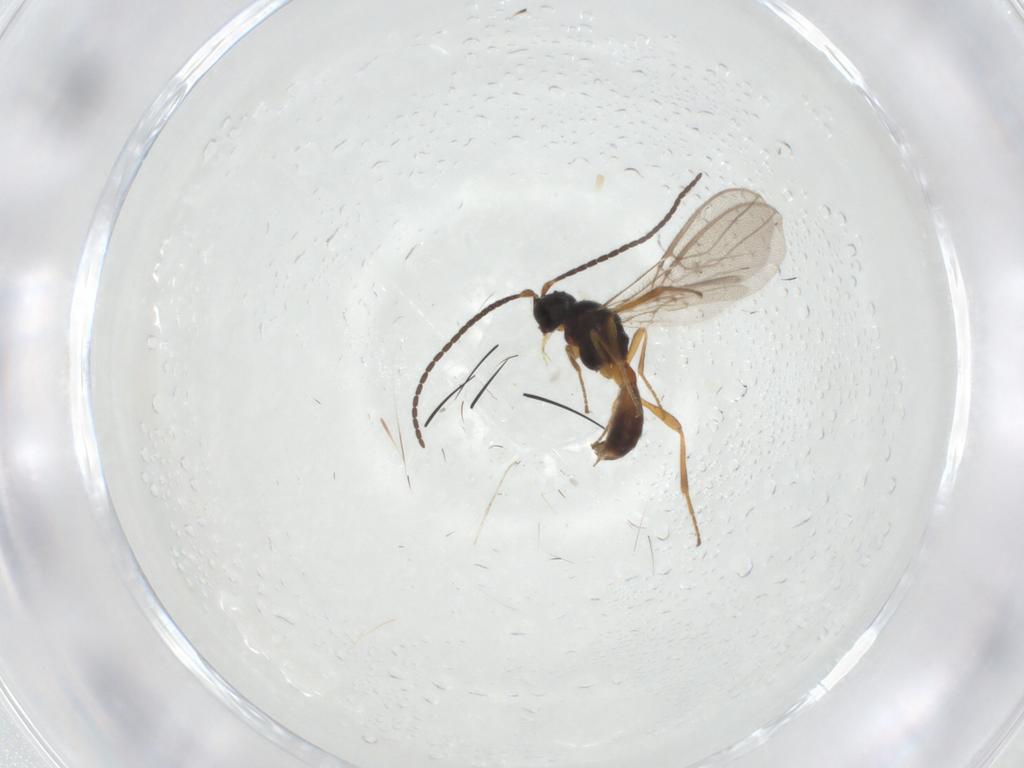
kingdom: Animalia
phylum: Arthropoda
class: Insecta
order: Hymenoptera
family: Braconidae
